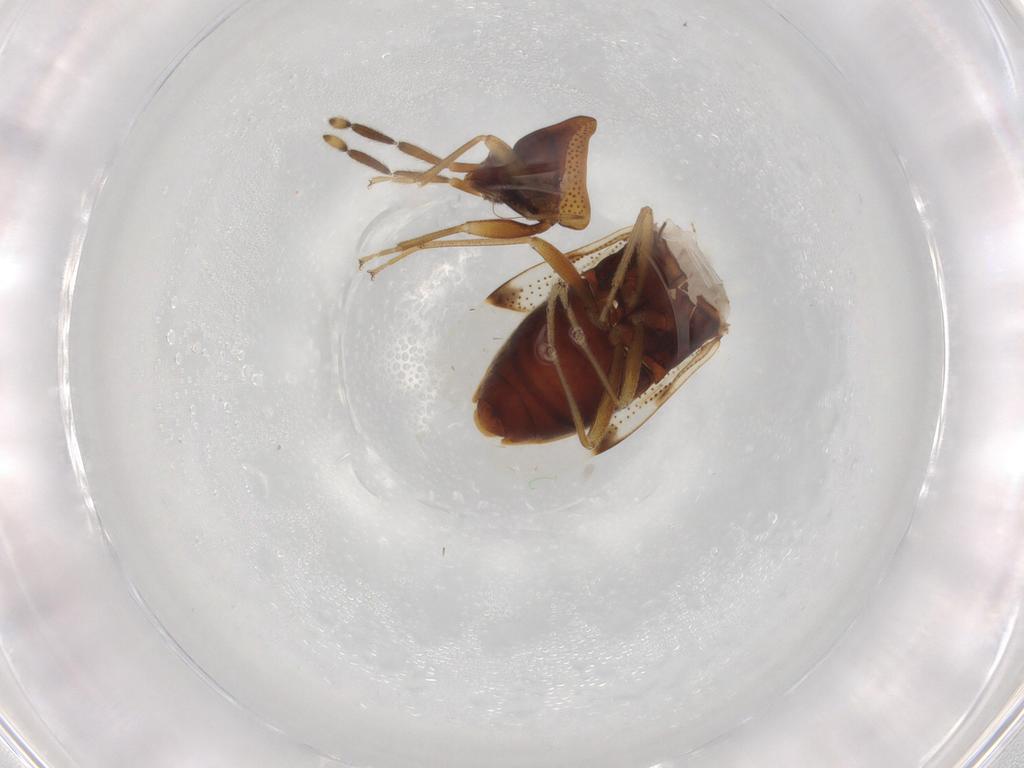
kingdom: Animalia
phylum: Arthropoda
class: Insecta
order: Hemiptera
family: Rhyparochromidae
